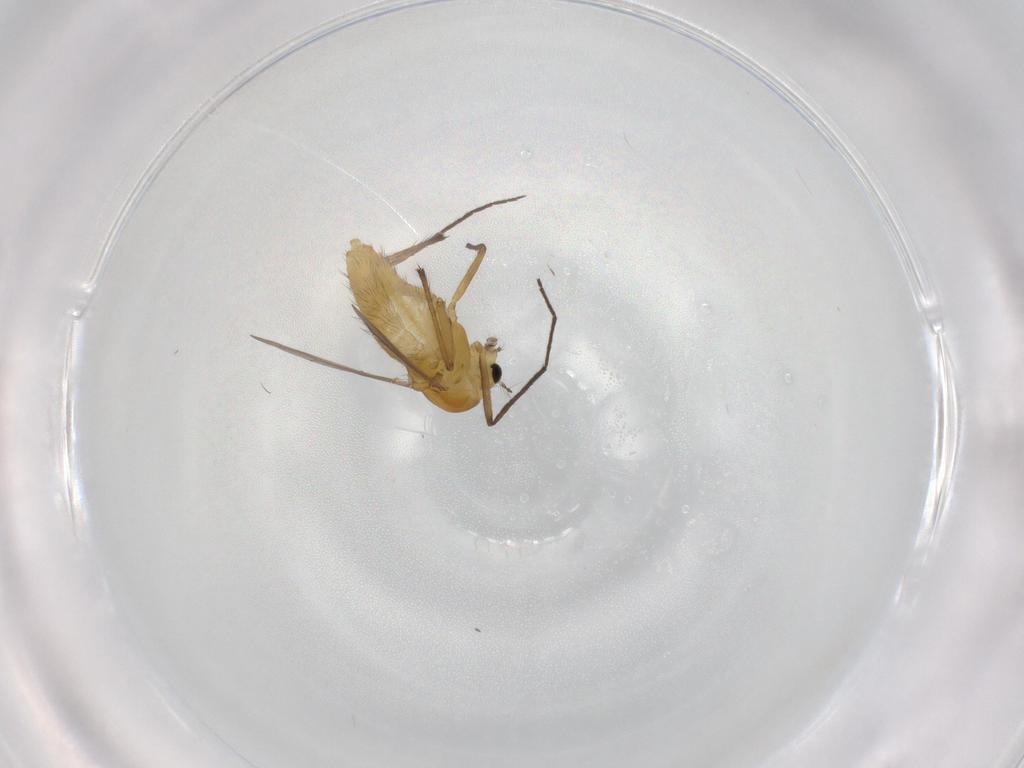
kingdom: Animalia
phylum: Arthropoda
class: Insecta
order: Diptera
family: Chironomidae
